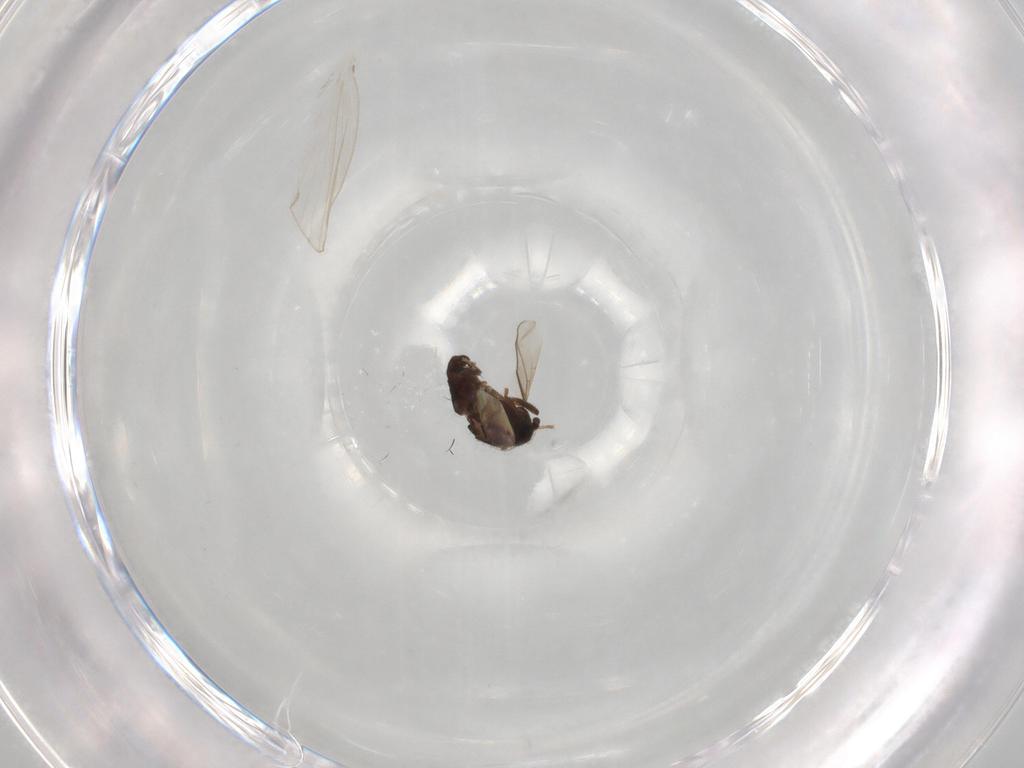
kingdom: Animalia
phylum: Arthropoda
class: Insecta
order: Diptera
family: Sphaeroceridae
